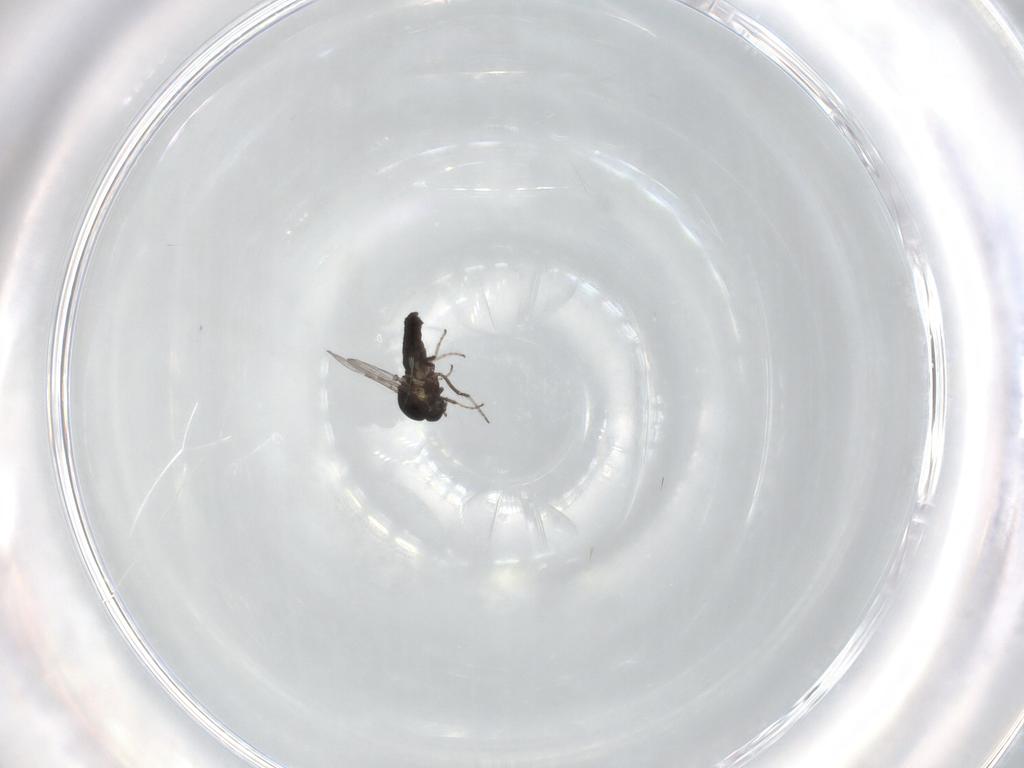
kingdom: Animalia
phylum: Arthropoda
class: Insecta
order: Diptera
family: Ceratopogonidae
